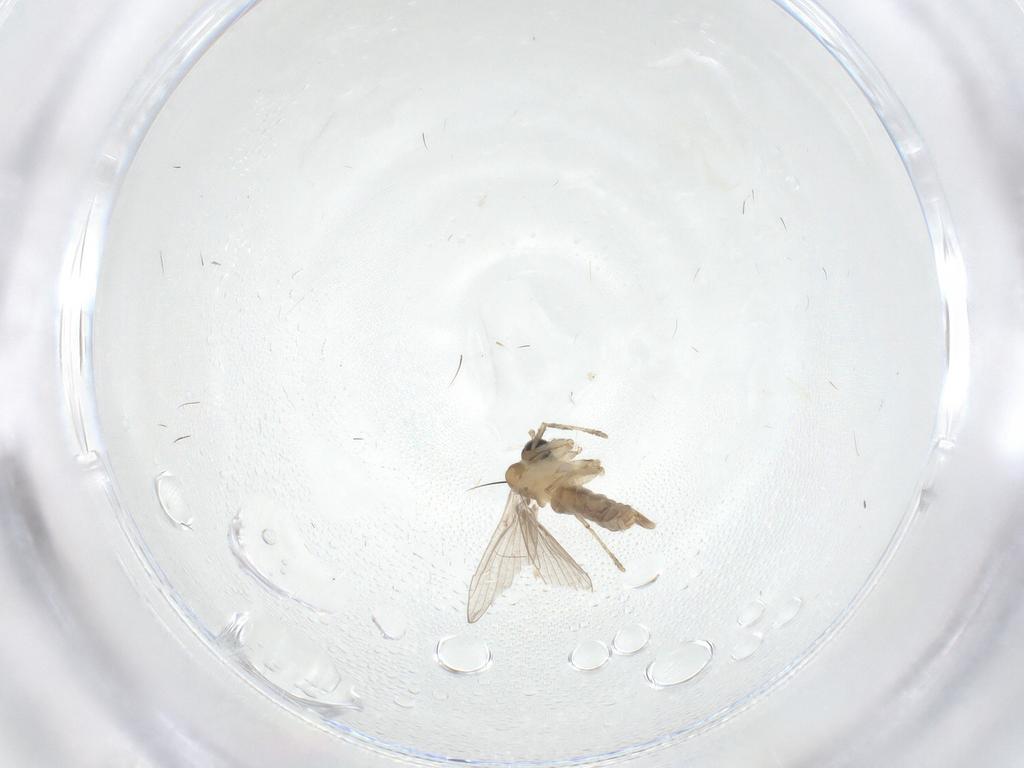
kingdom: Animalia
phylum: Arthropoda
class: Insecta
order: Diptera
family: Psychodidae
